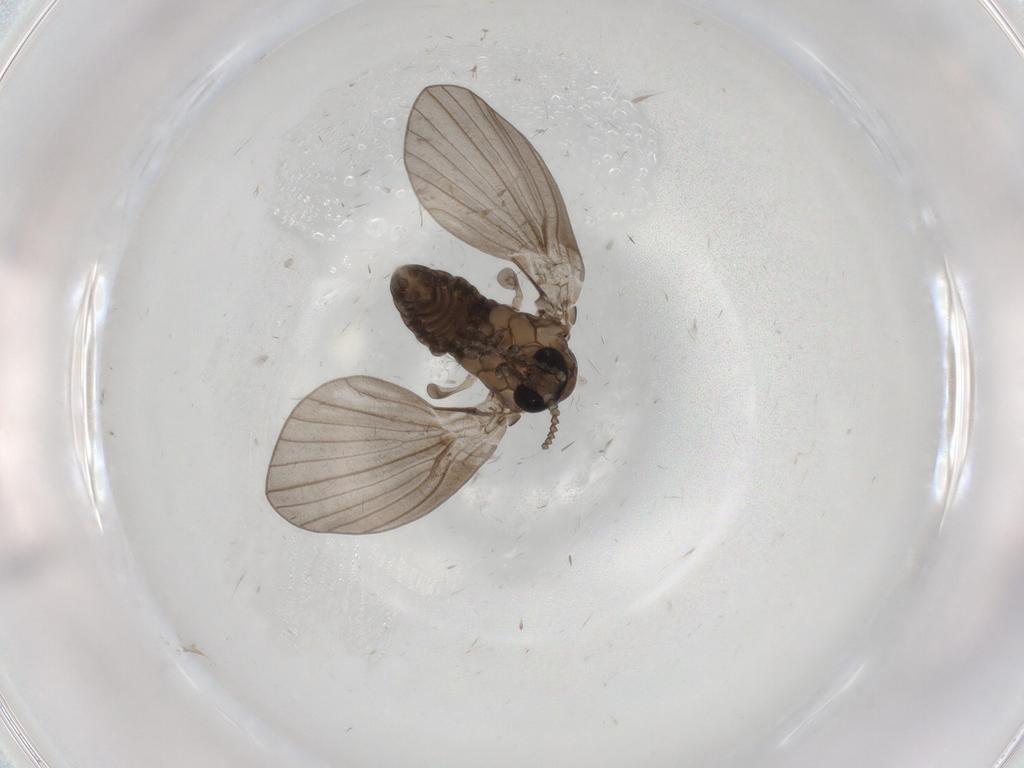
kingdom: Animalia
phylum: Arthropoda
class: Insecta
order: Diptera
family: Psychodidae
